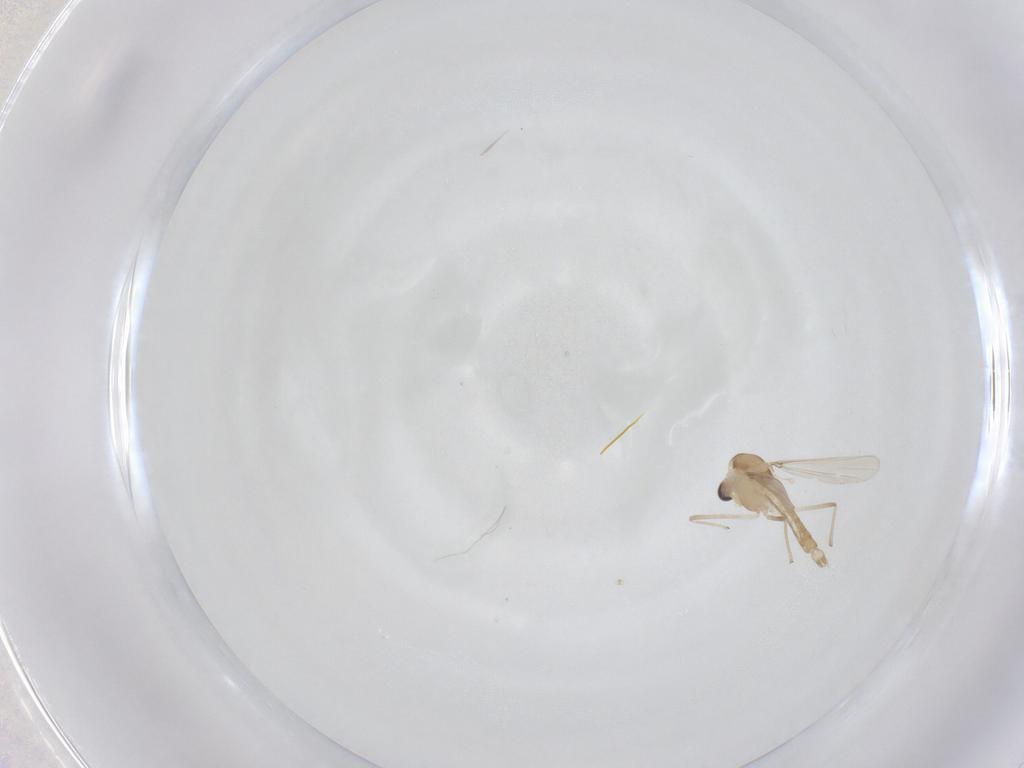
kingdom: Animalia
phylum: Arthropoda
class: Insecta
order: Diptera
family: Chironomidae
